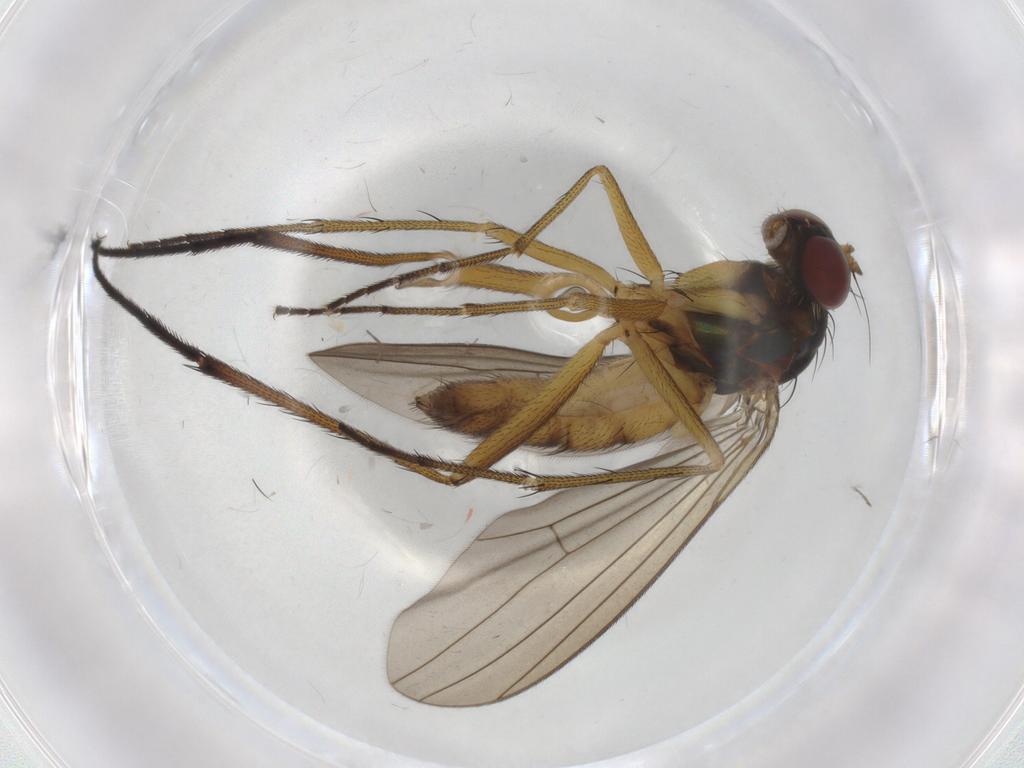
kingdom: Animalia
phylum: Arthropoda
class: Insecta
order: Diptera
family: Dolichopodidae
